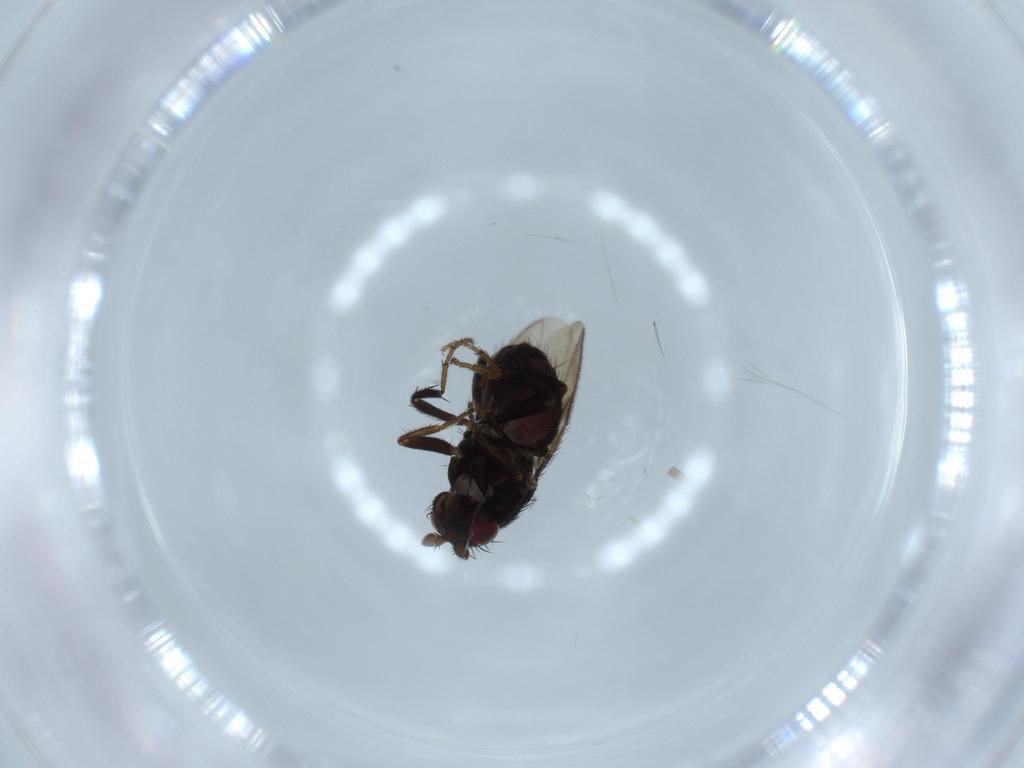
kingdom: Animalia
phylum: Arthropoda
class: Insecta
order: Diptera
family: Sphaeroceridae
